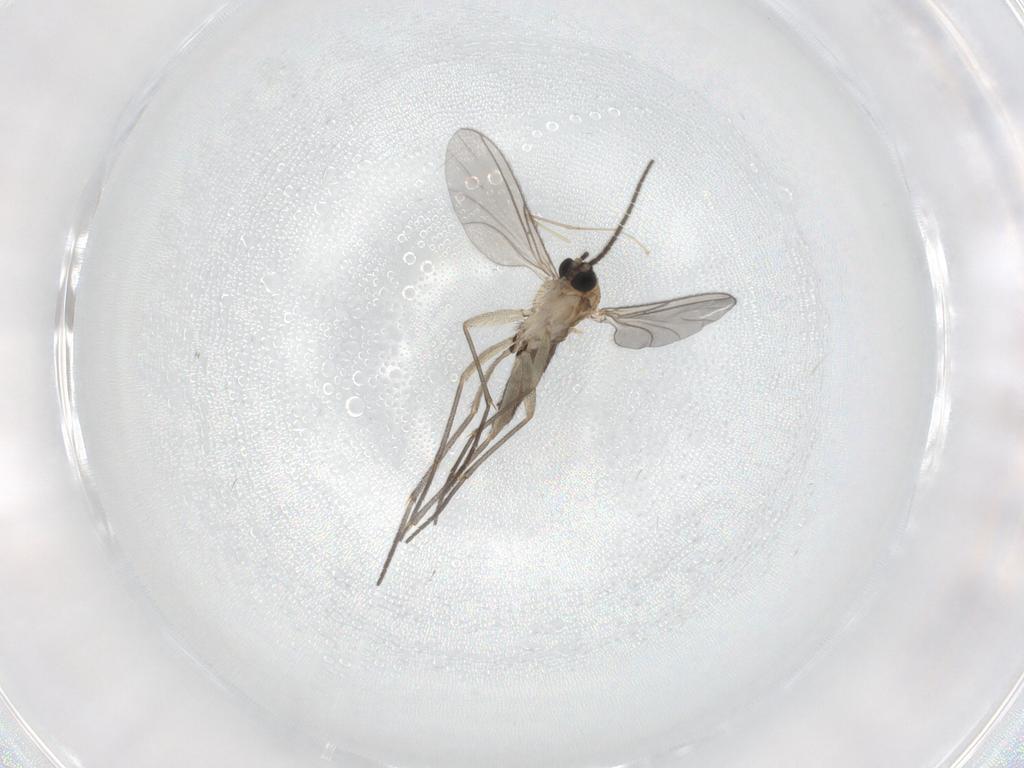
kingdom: Animalia
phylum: Arthropoda
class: Insecta
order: Diptera
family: Sciaridae
